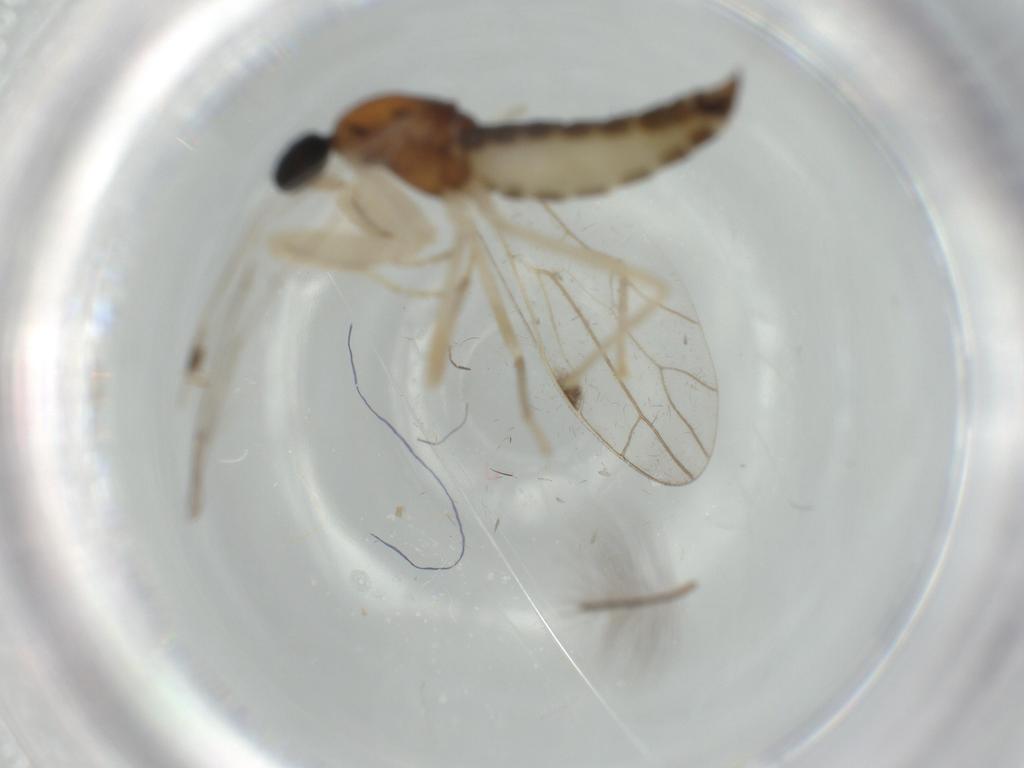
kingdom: Animalia
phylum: Arthropoda
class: Insecta
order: Diptera
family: Empididae
